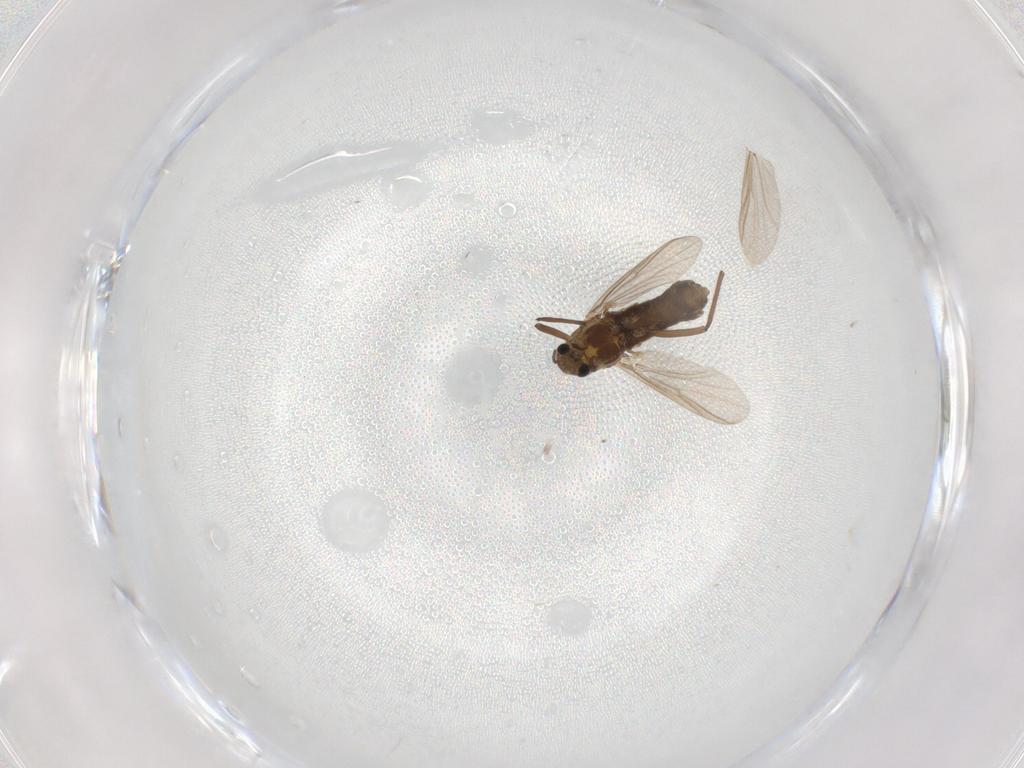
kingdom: Animalia
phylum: Arthropoda
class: Insecta
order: Diptera
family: Chironomidae
